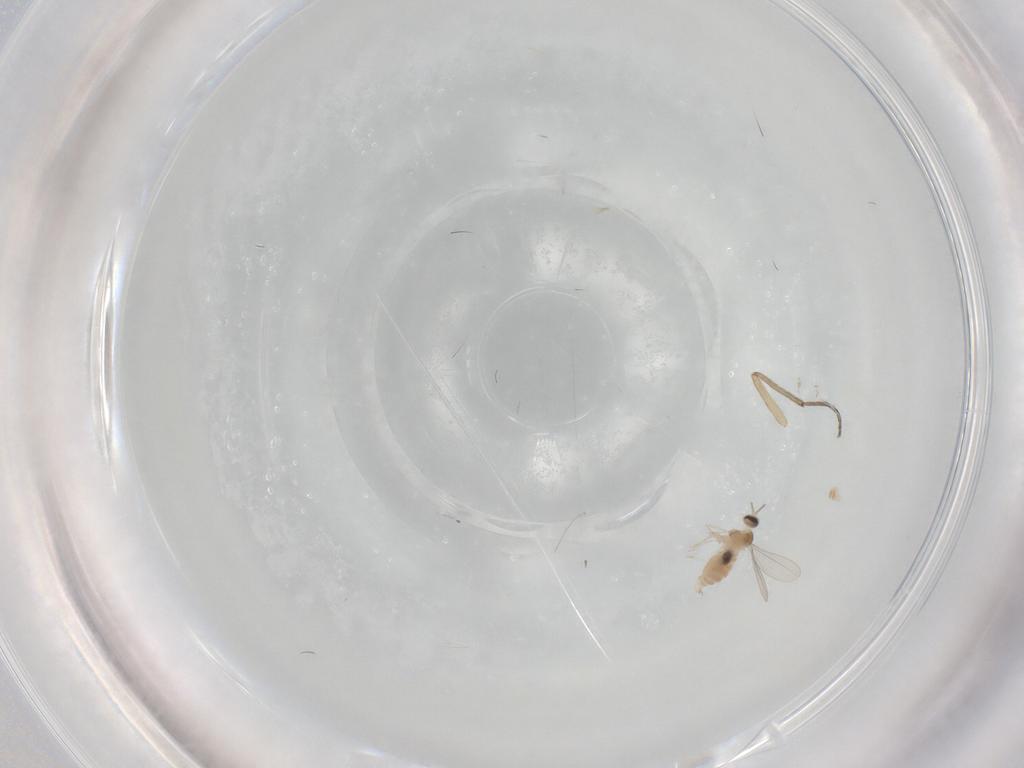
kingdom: Animalia
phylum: Arthropoda
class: Insecta
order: Diptera
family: Cecidomyiidae
